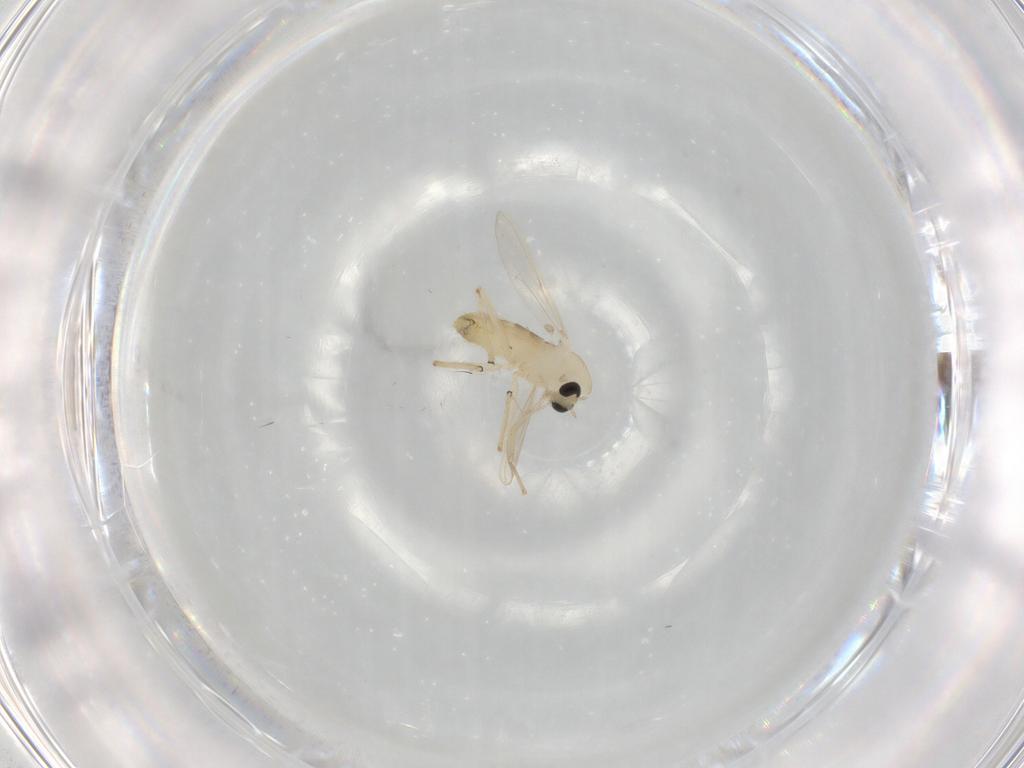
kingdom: Animalia
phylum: Arthropoda
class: Insecta
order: Diptera
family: Chironomidae
